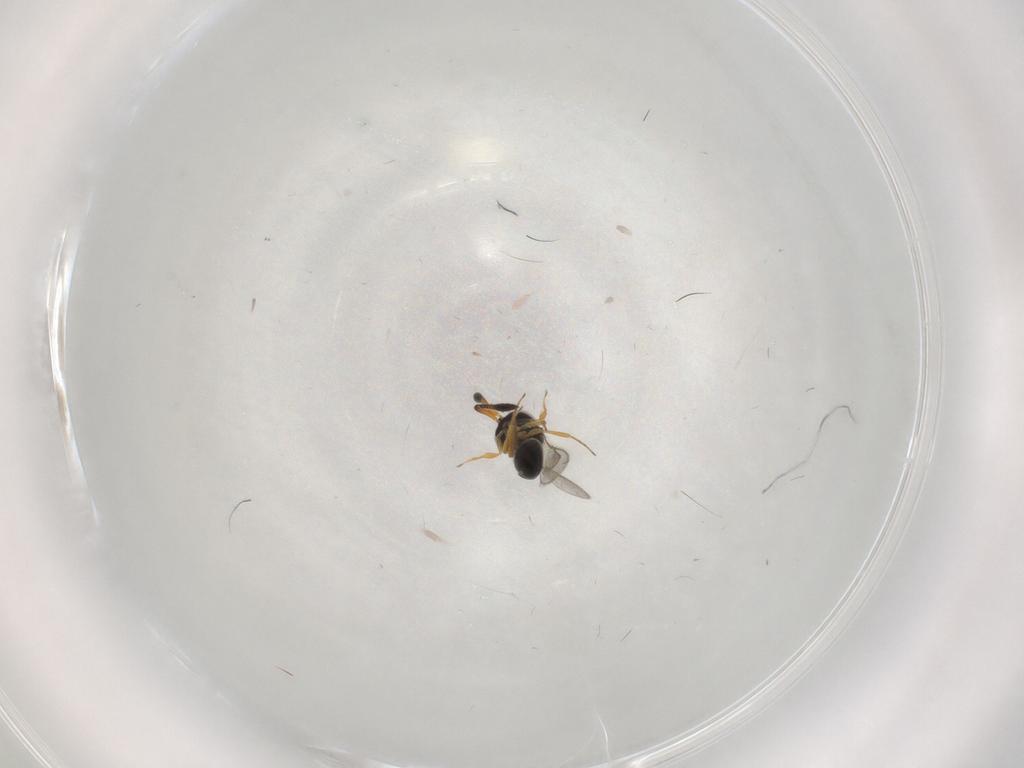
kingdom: Animalia
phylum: Arthropoda
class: Insecta
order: Hymenoptera
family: Scelionidae
